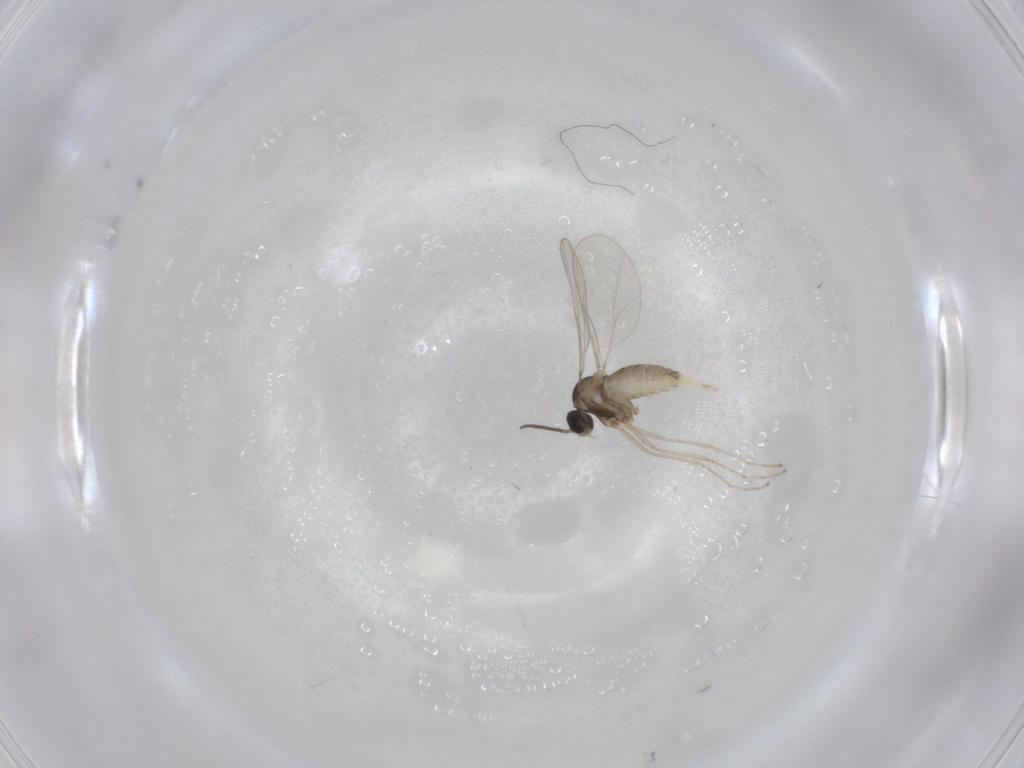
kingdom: Animalia
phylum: Arthropoda
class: Insecta
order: Diptera
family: Cecidomyiidae
